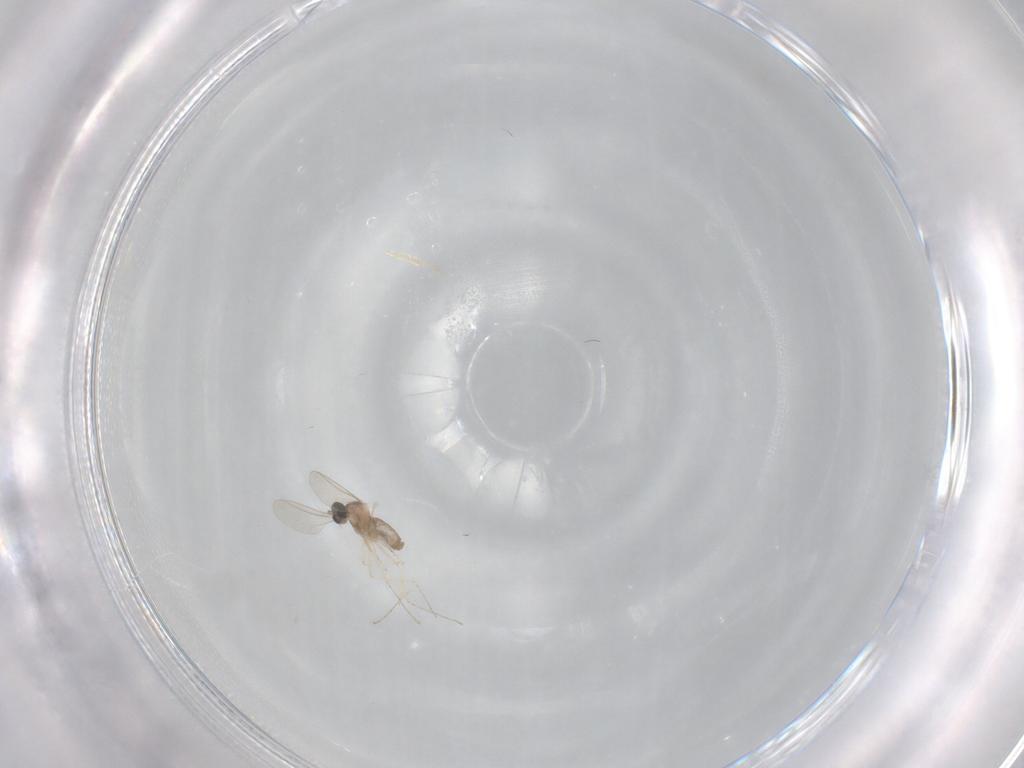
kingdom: Animalia
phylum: Arthropoda
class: Insecta
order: Diptera
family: Cecidomyiidae
